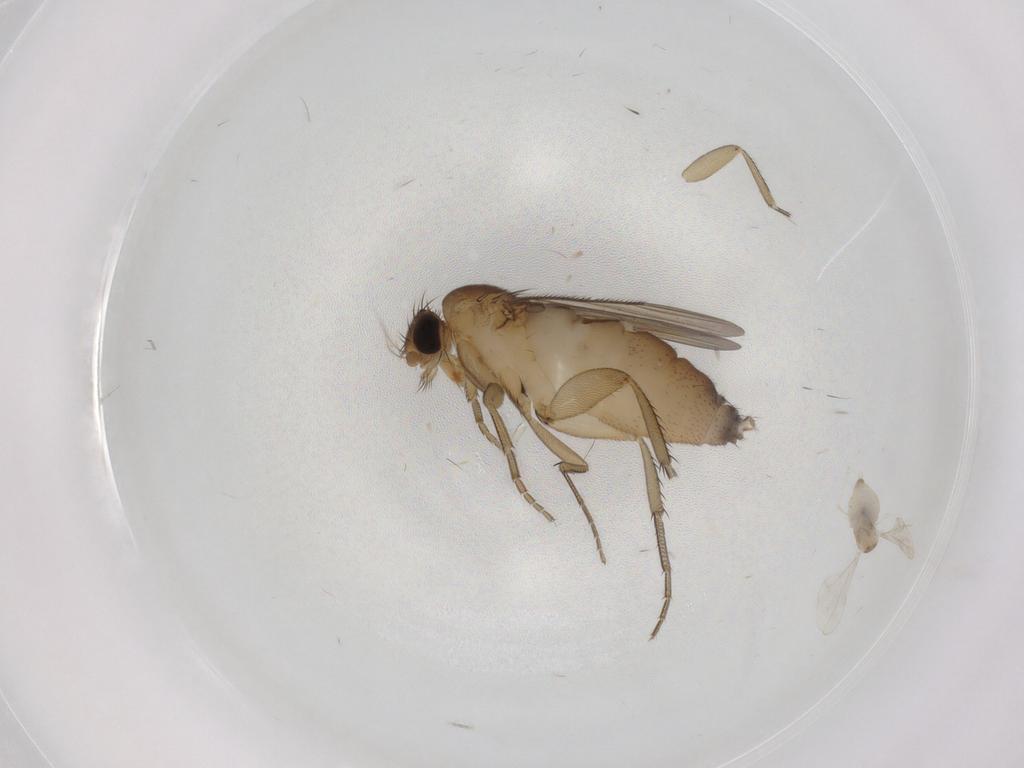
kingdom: Animalia
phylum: Arthropoda
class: Insecta
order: Diptera
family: Phoridae
